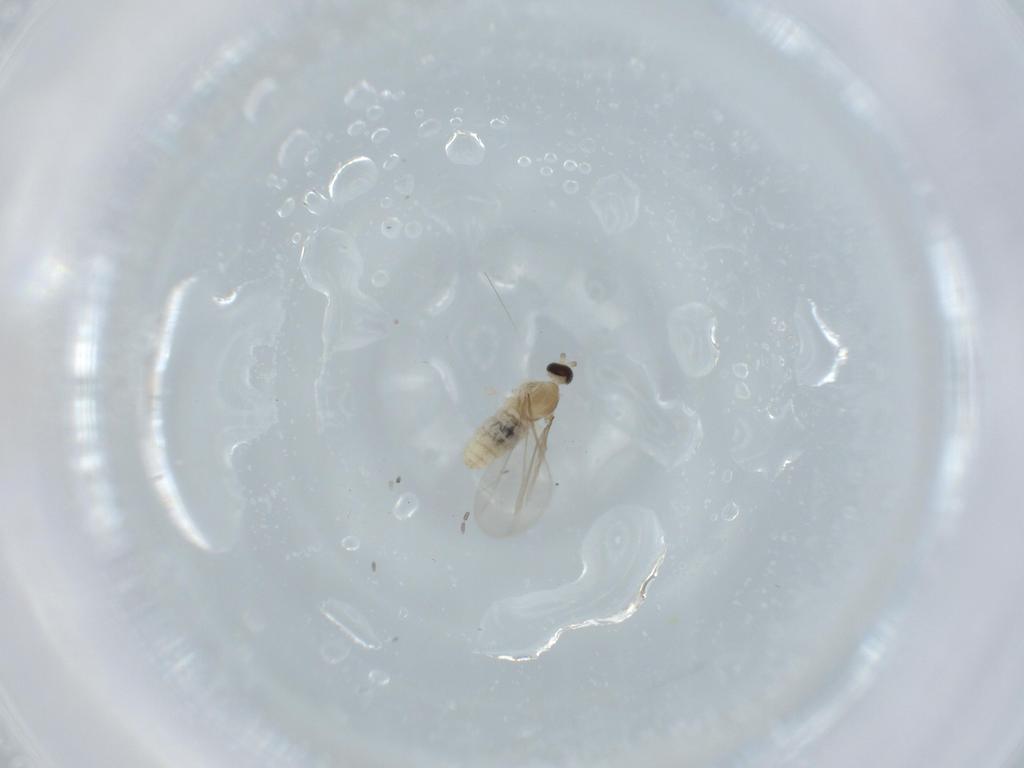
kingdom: Animalia
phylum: Arthropoda
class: Insecta
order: Diptera
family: Cecidomyiidae
